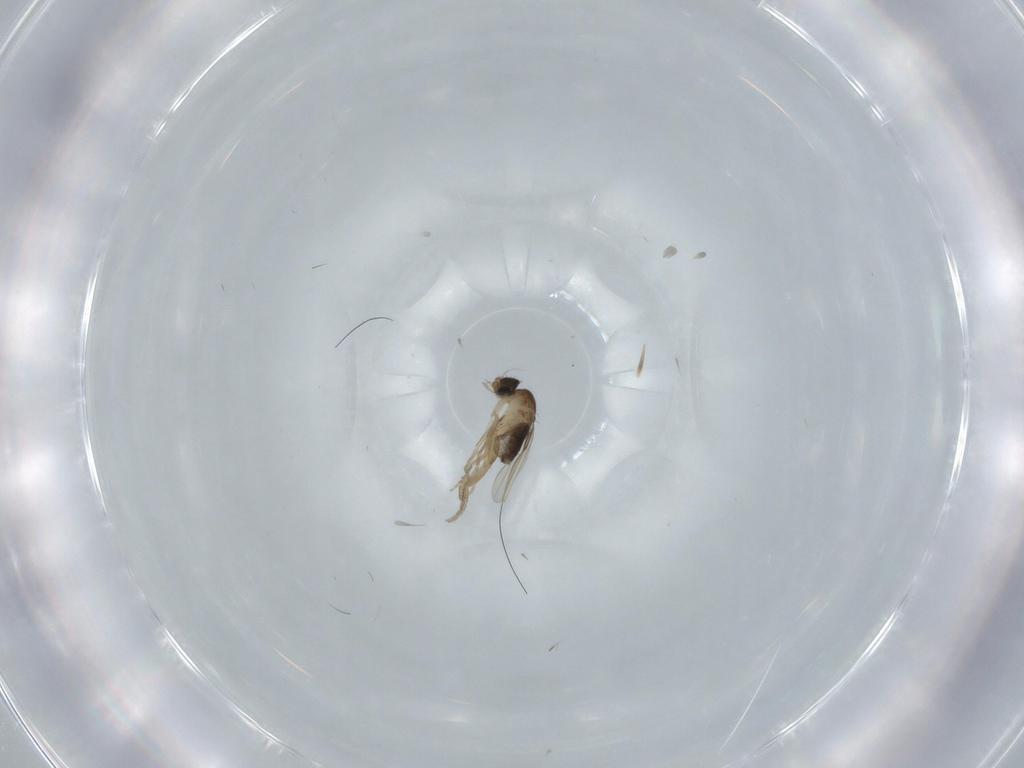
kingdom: Animalia
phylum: Arthropoda
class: Insecta
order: Diptera
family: Phoridae
